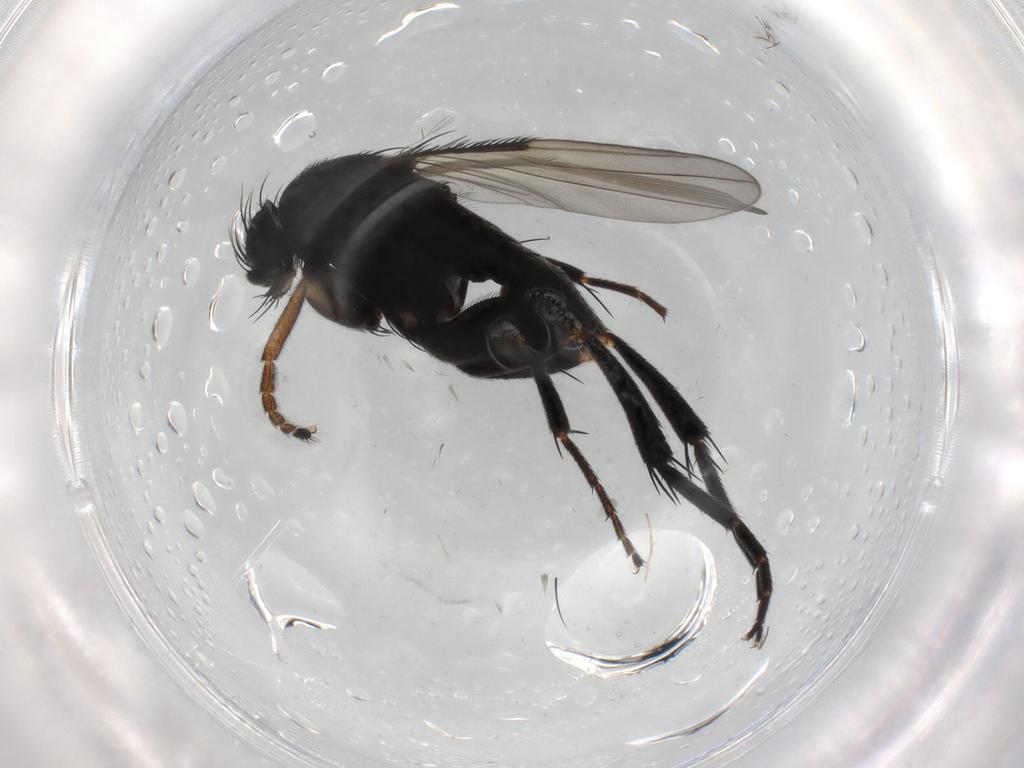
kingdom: Animalia
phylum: Arthropoda
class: Insecta
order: Diptera
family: Phoridae
